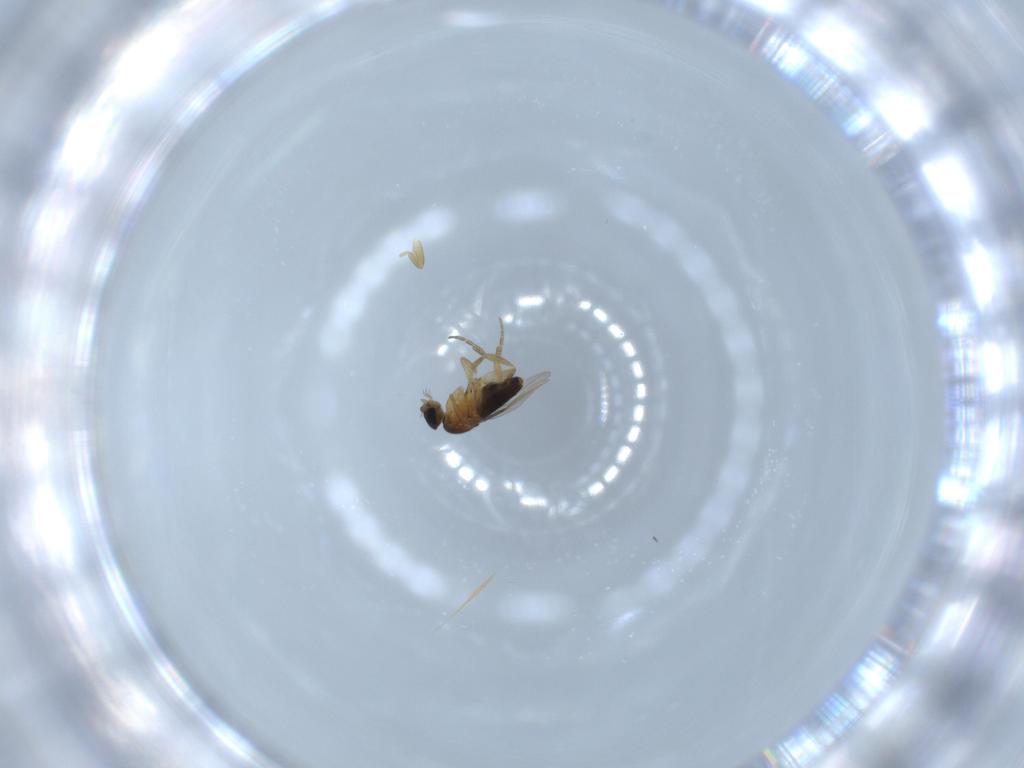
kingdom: Animalia
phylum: Arthropoda
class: Insecta
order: Diptera
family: Phoridae
